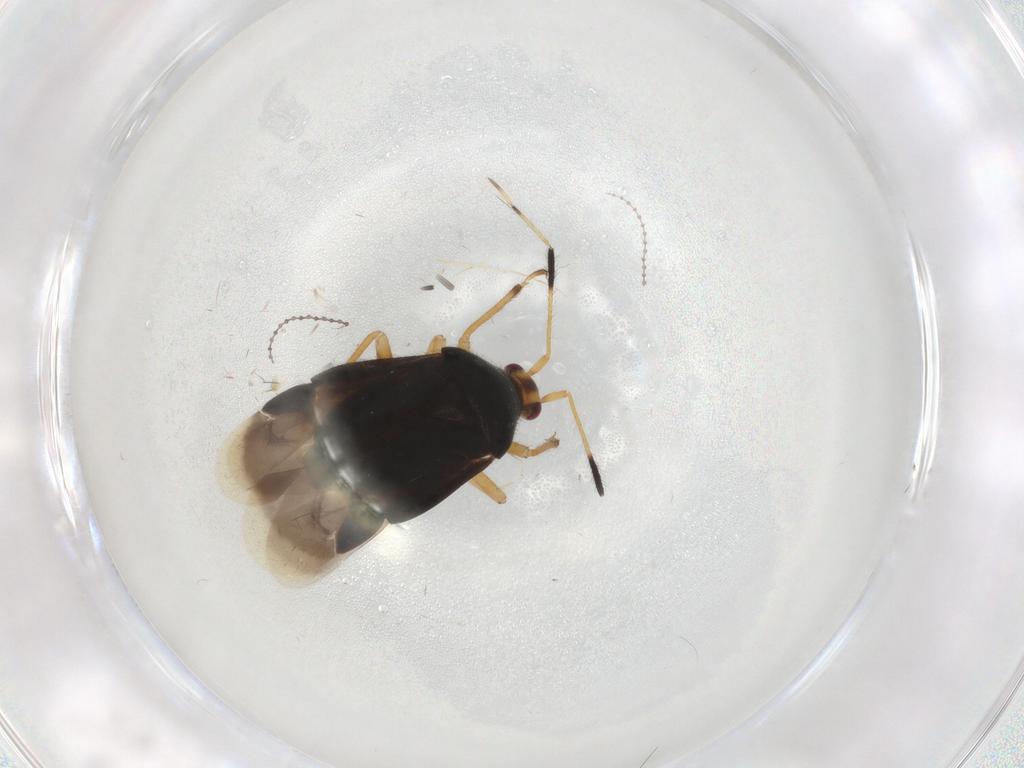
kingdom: Animalia
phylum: Arthropoda
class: Insecta
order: Hemiptera
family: Miridae
